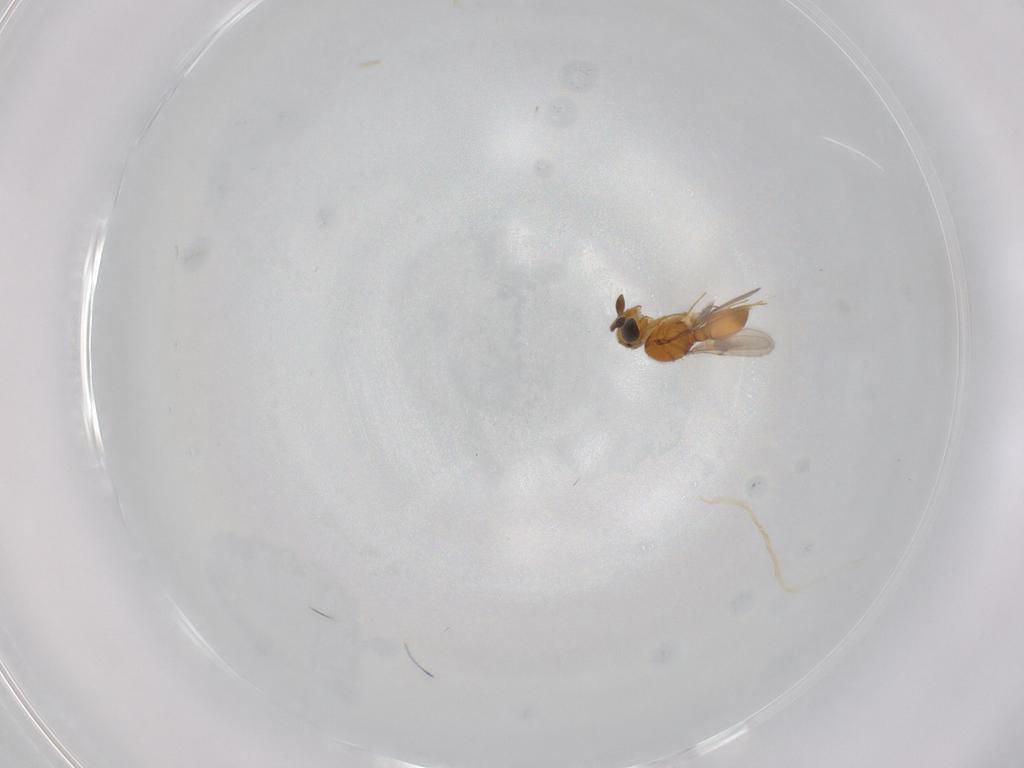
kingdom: Animalia
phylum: Arthropoda
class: Insecta
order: Hymenoptera
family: Scelionidae
